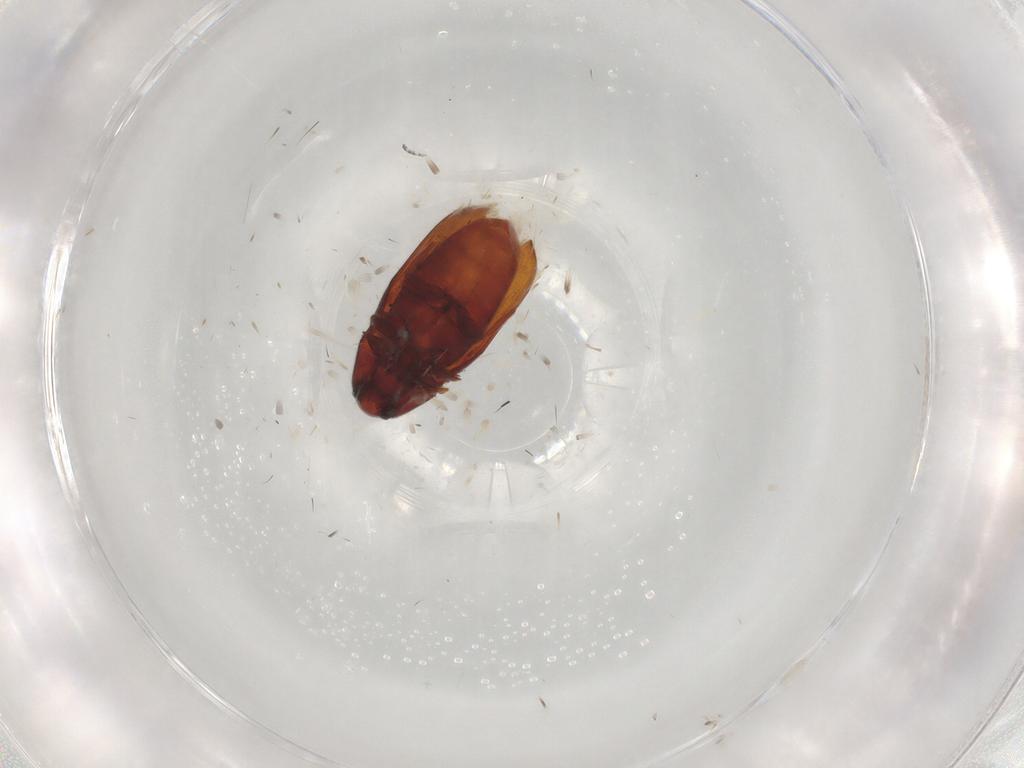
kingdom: Animalia
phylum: Arthropoda
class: Insecta
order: Coleoptera
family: Throscidae
